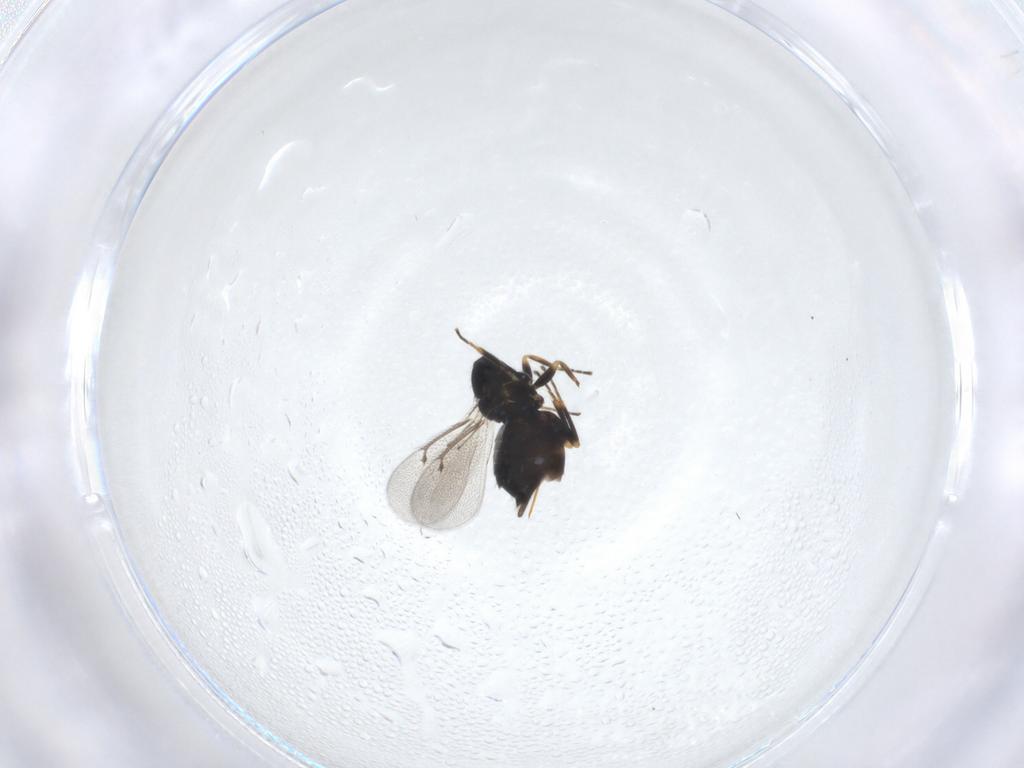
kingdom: Animalia
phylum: Arthropoda
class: Insecta
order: Hymenoptera
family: Eulophidae
